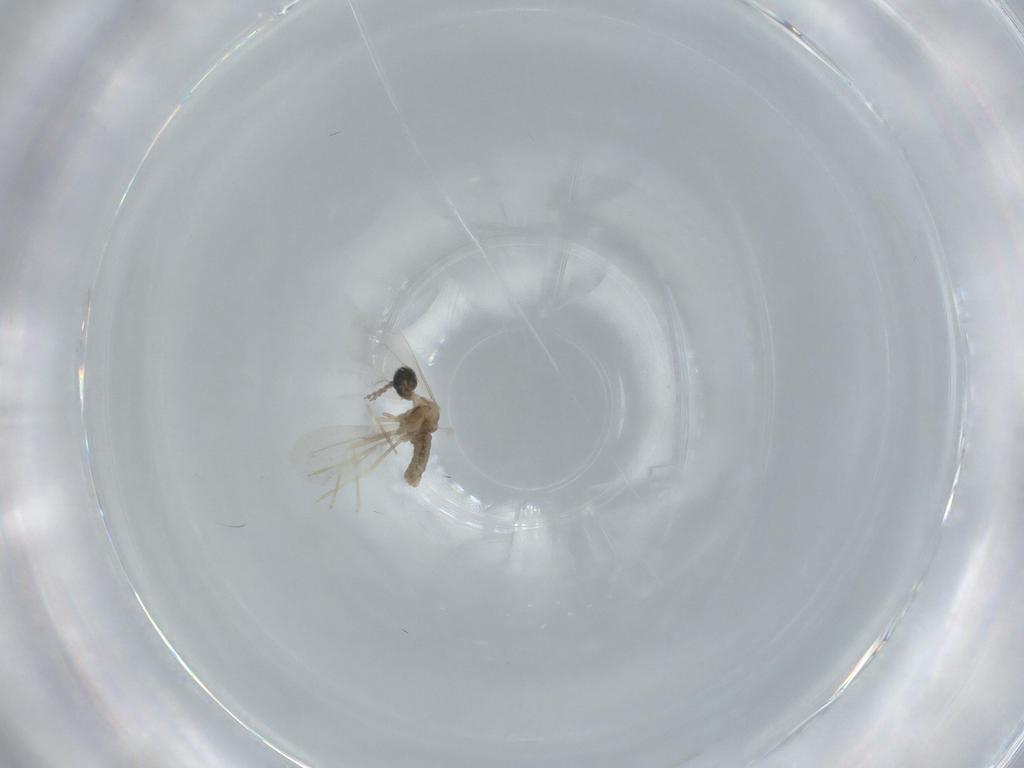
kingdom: Animalia
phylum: Arthropoda
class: Insecta
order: Diptera
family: Cecidomyiidae
